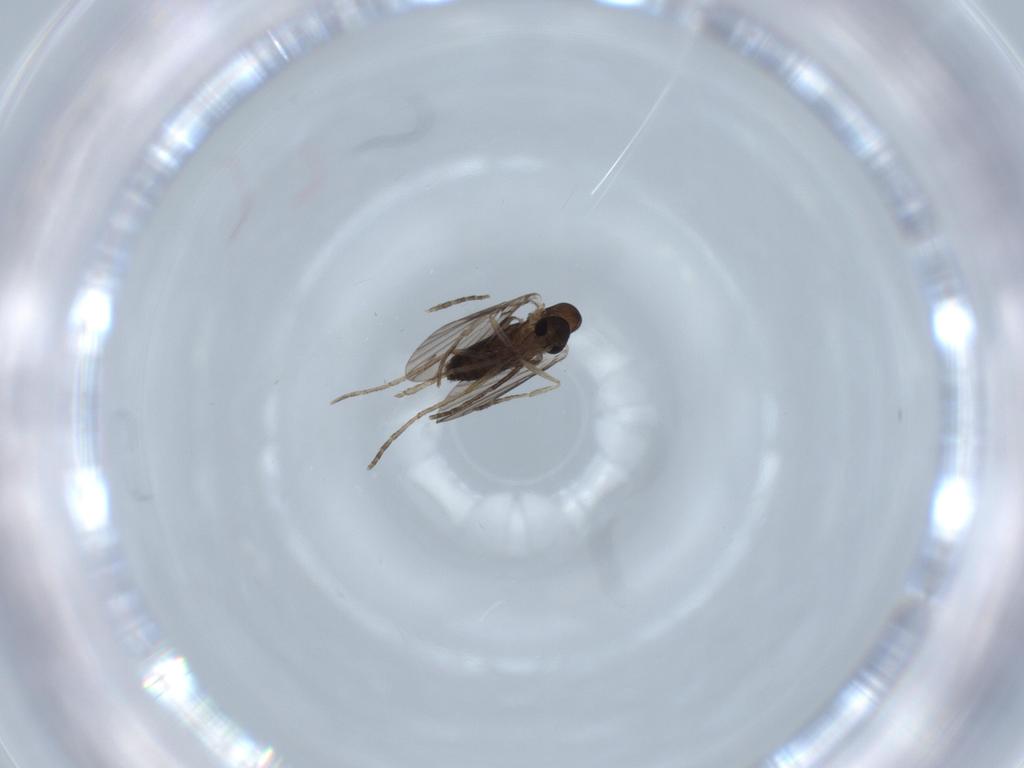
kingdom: Animalia
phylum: Arthropoda
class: Insecta
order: Diptera
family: Psychodidae
